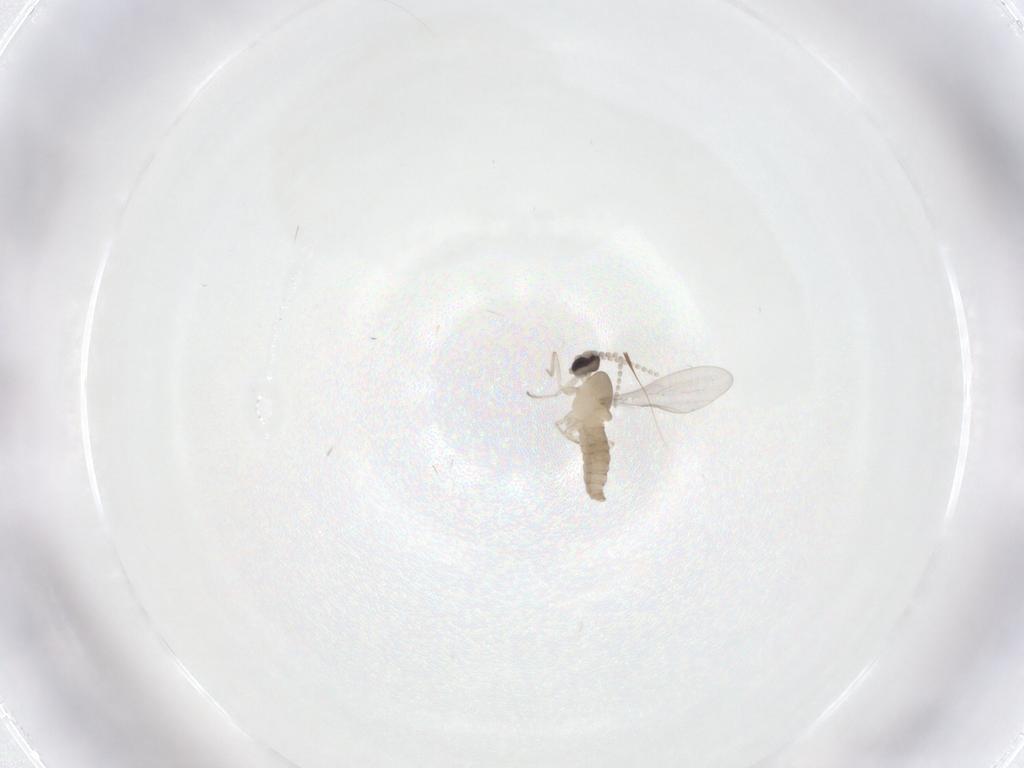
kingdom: Animalia
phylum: Arthropoda
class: Insecta
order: Diptera
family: Cecidomyiidae
